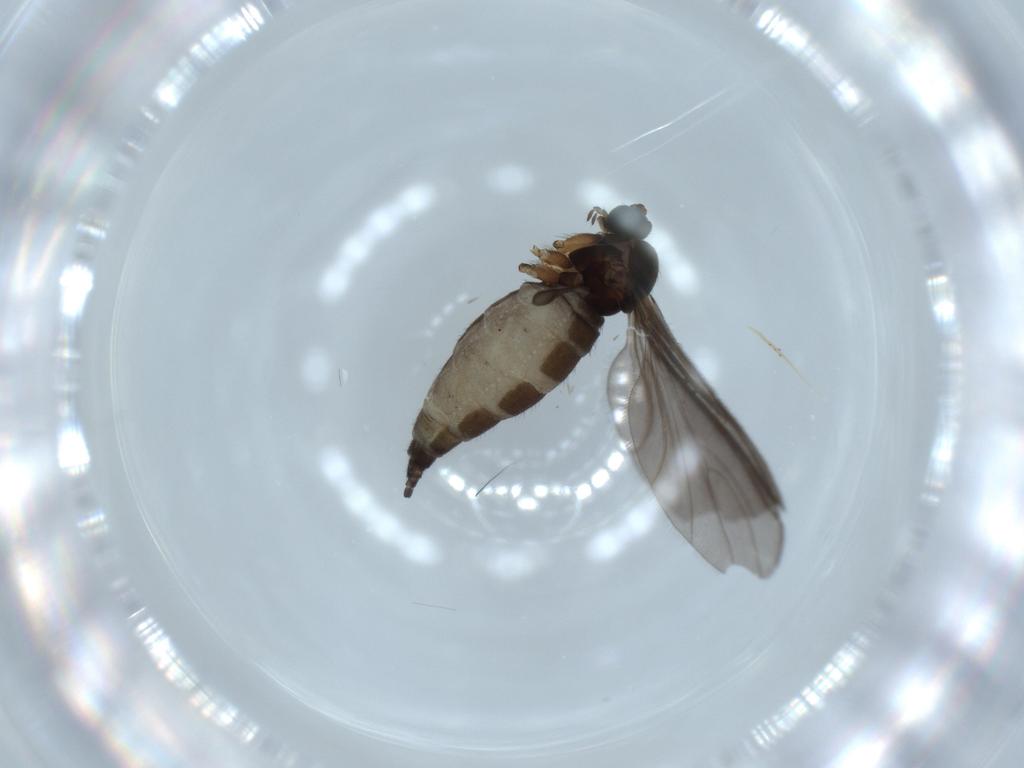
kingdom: Animalia
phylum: Arthropoda
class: Insecta
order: Diptera
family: Sciaridae
